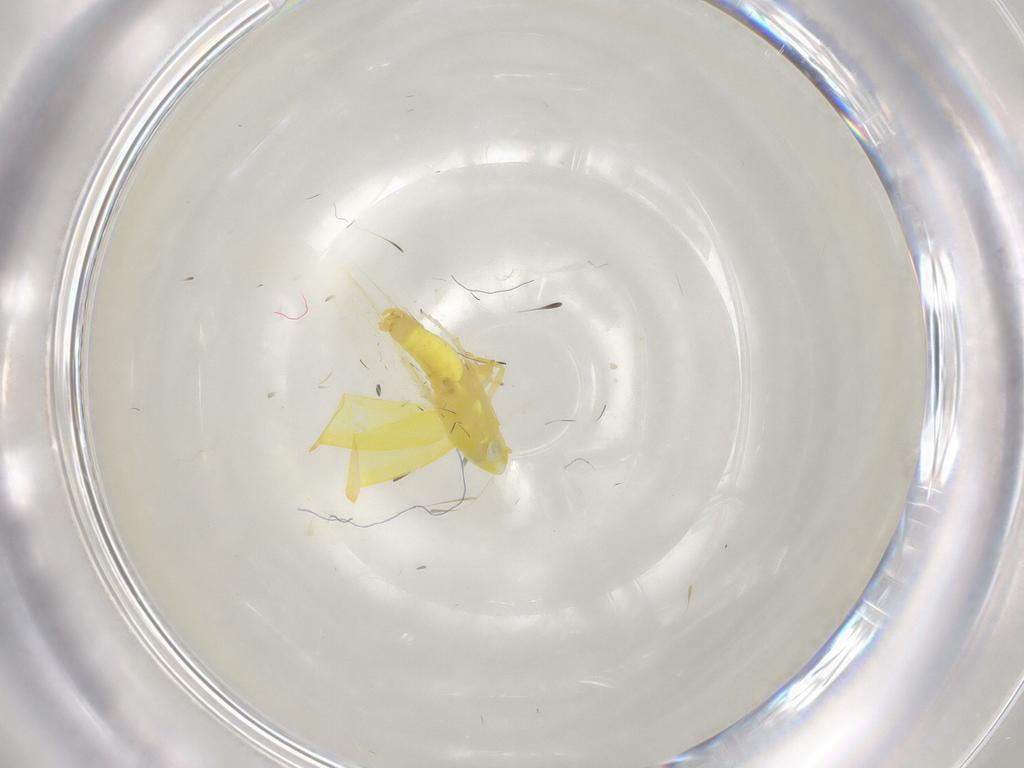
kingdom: Animalia
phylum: Arthropoda
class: Insecta
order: Hemiptera
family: Cicadellidae
